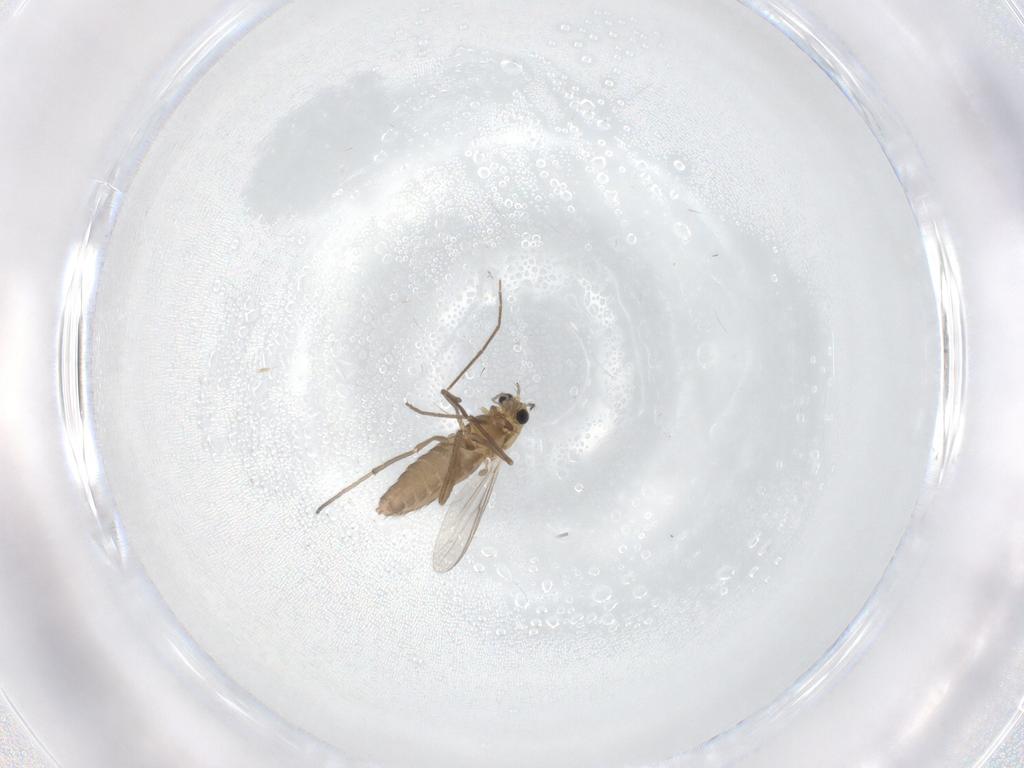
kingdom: Animalia
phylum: Arthropoda
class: Insecta
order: Diptera
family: Chironomidae
